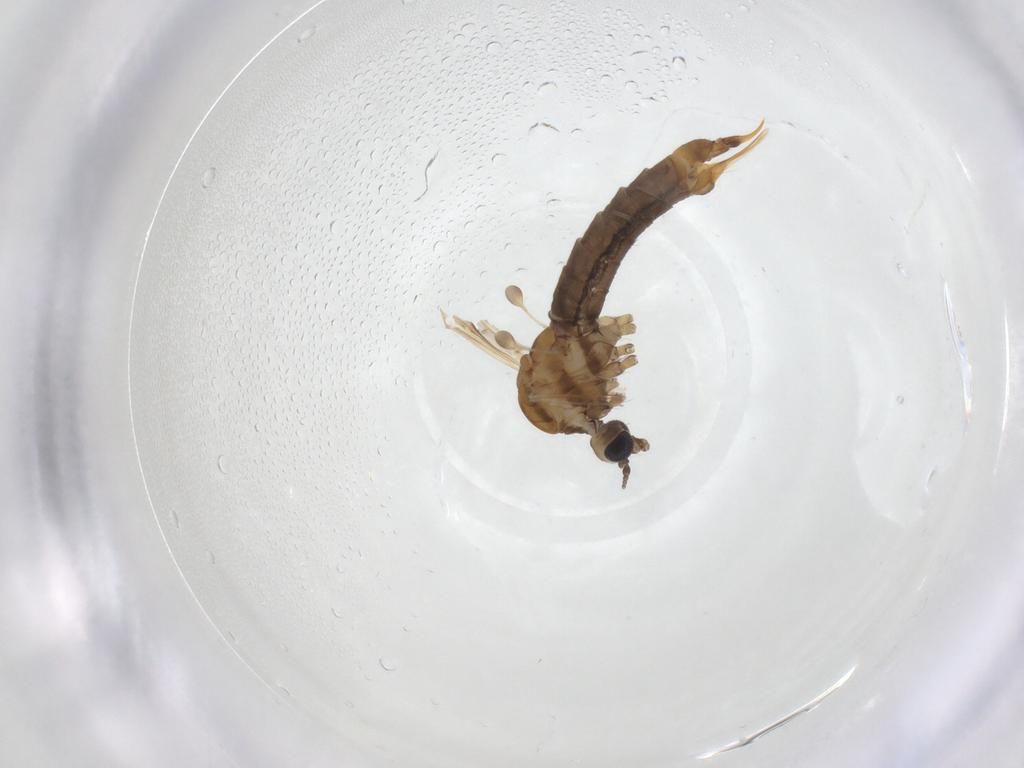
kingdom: Animalia
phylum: Arthropoda
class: Insecta
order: Diptera
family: Limoniidae
